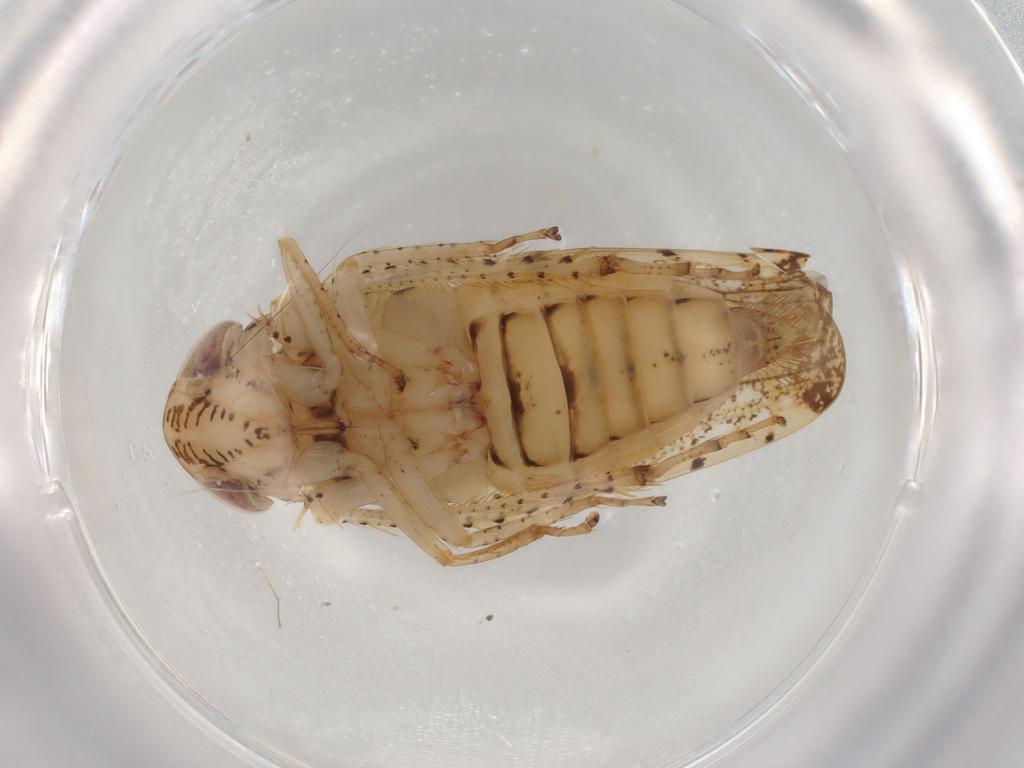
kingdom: Animalia
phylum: Arthropoda
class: Insecta
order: Hemiptera
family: Cicadellidae
